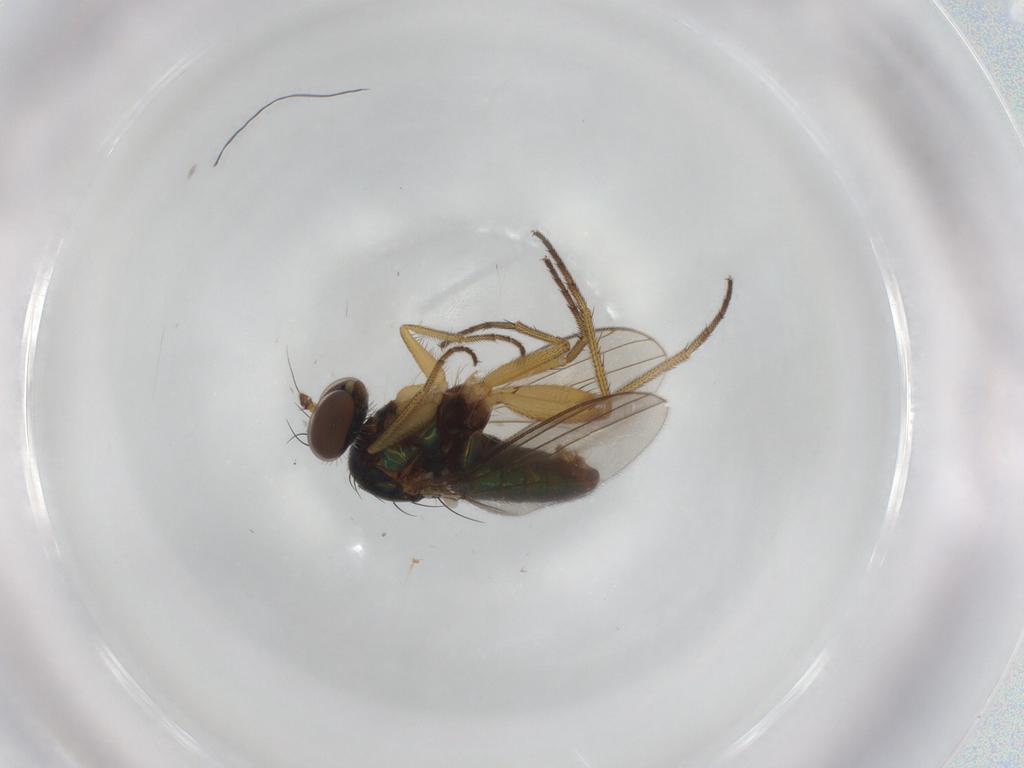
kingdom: Animalia
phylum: Arthropoda
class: Insecta
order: Diptera
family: Dolichopodidae
